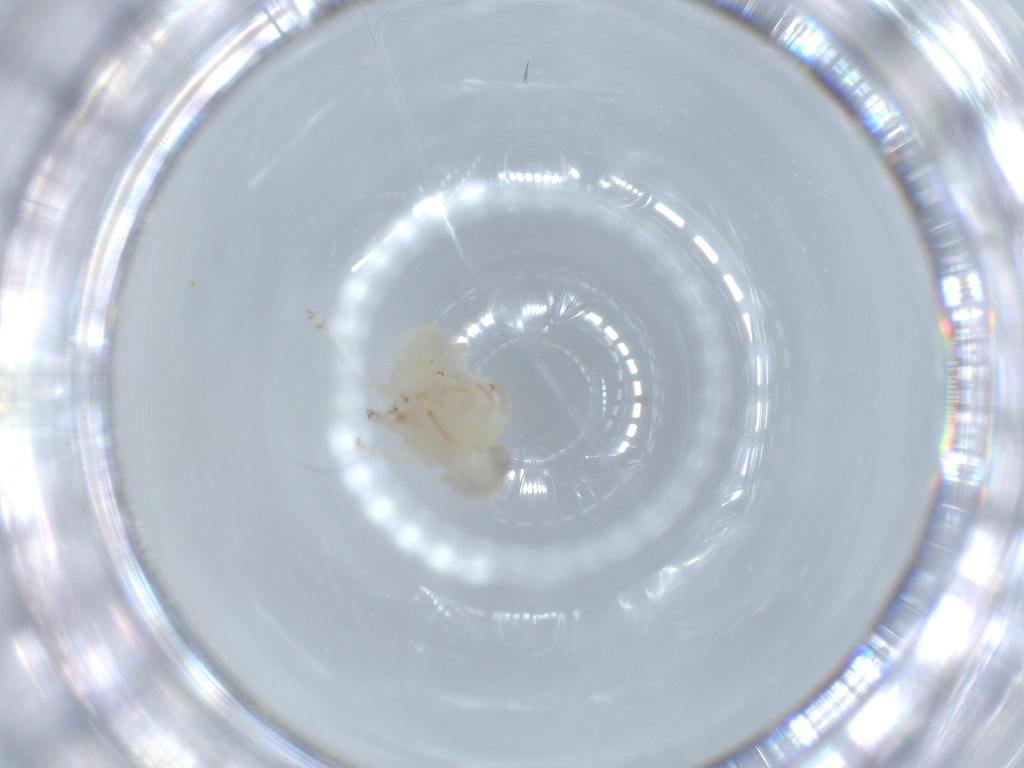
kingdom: Animalia
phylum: Arthropoda
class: Insecta
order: Hemiptera
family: Nogodinidae
